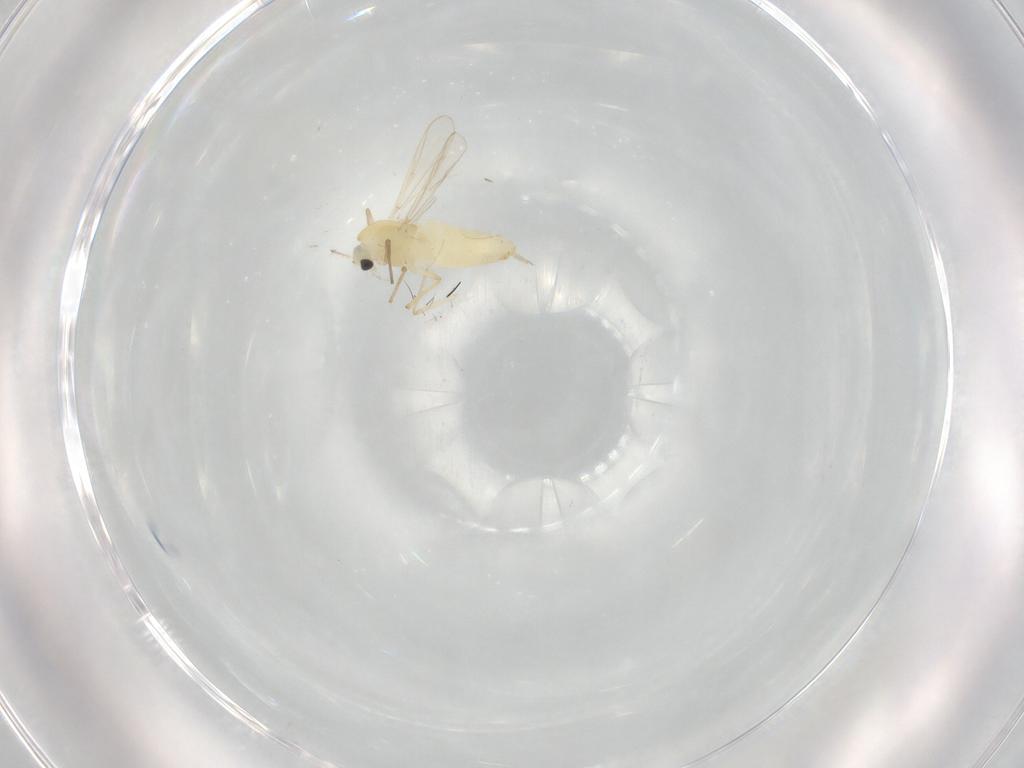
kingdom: Animalia
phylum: Arthropoda
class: Insecta
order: Diptera
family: Chironomidae
